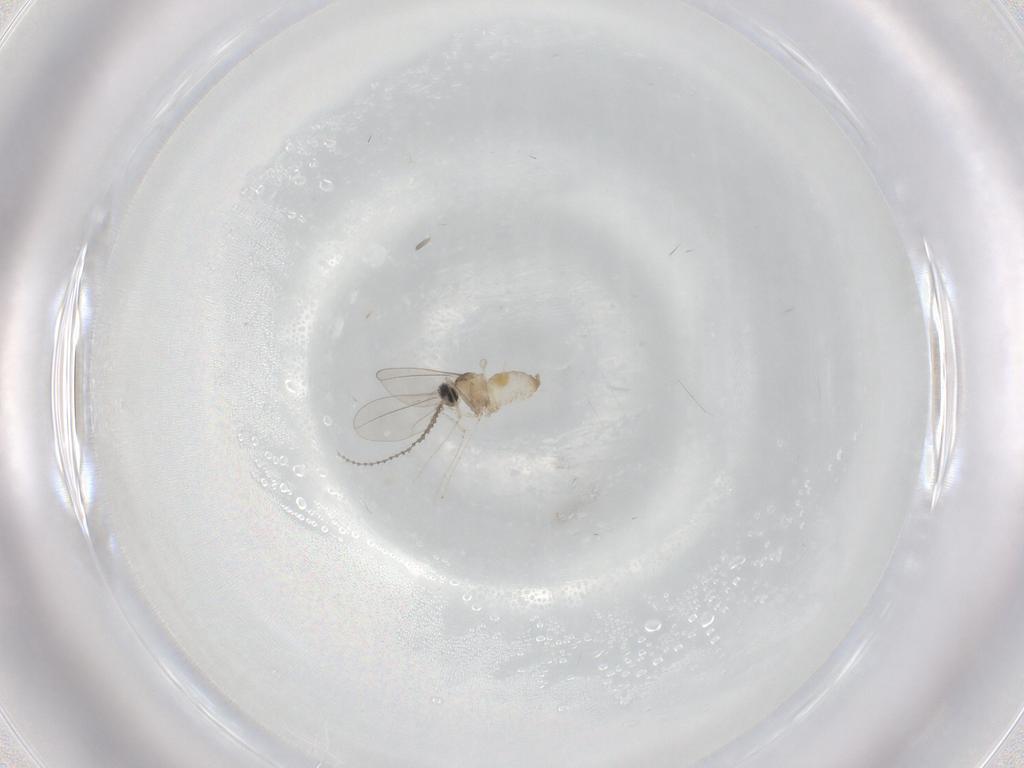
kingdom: Animalia
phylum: Arthropoda
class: Insecta
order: Diptera
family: Cecidomyiidae
